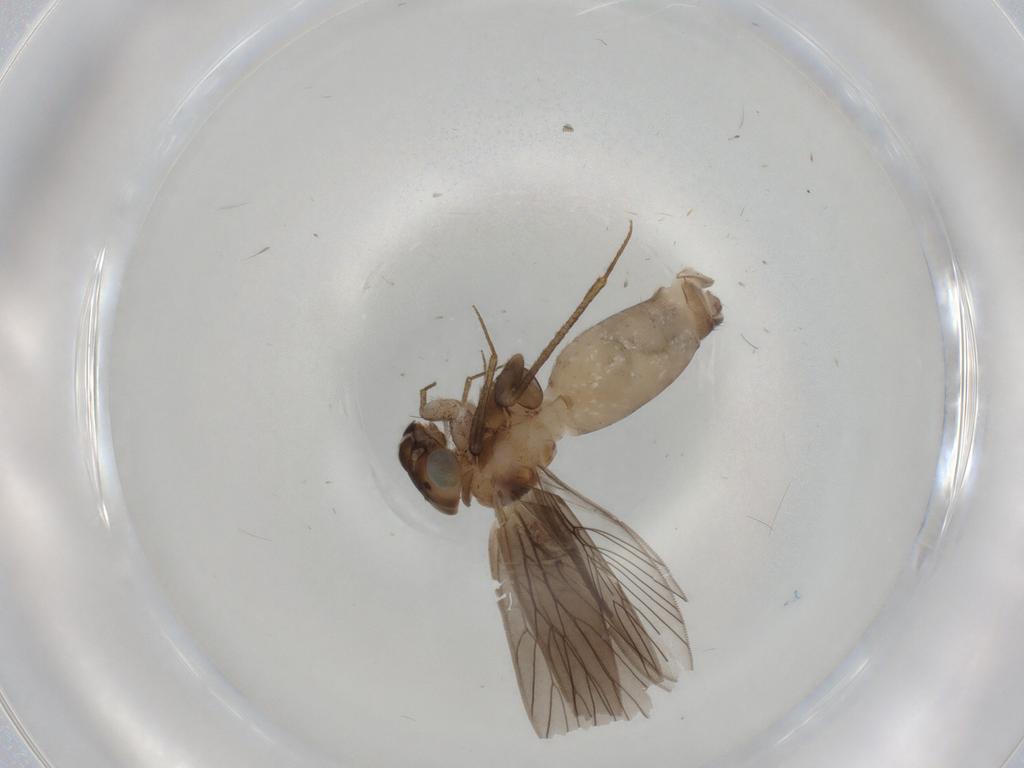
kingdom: Animalia
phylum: Arthropoda
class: Insecta
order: Psocodea
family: Lepidopsocidae
